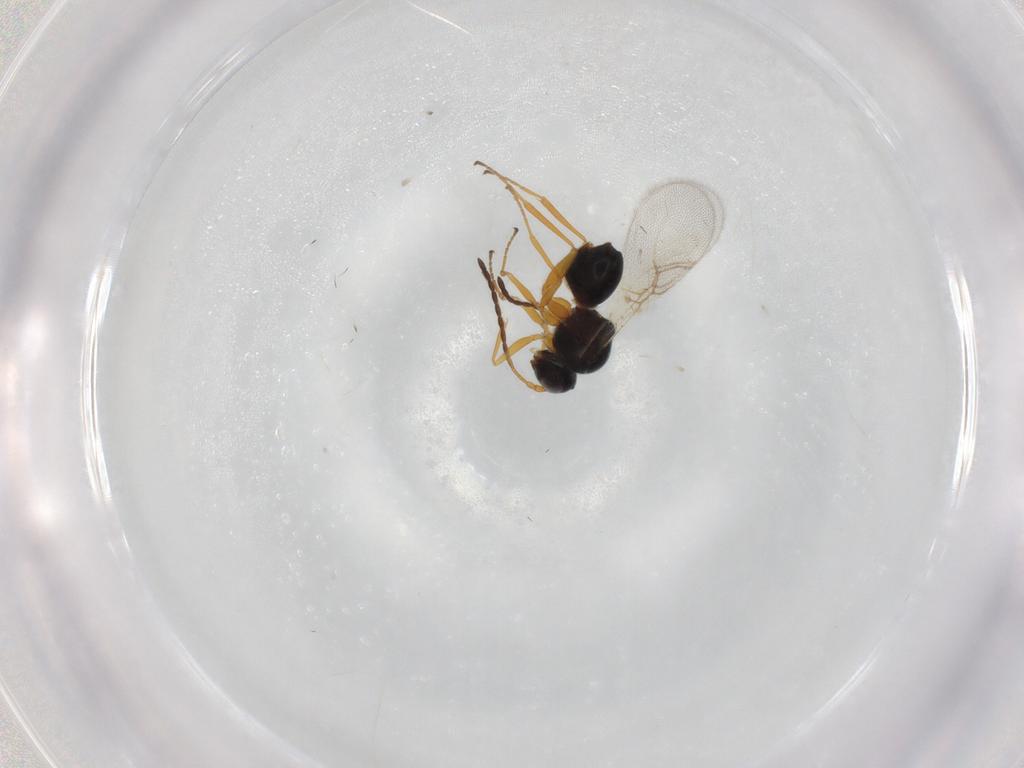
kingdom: Animalia
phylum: Arthropoda
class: Insecta
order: Hymenoptera
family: Figitidae
